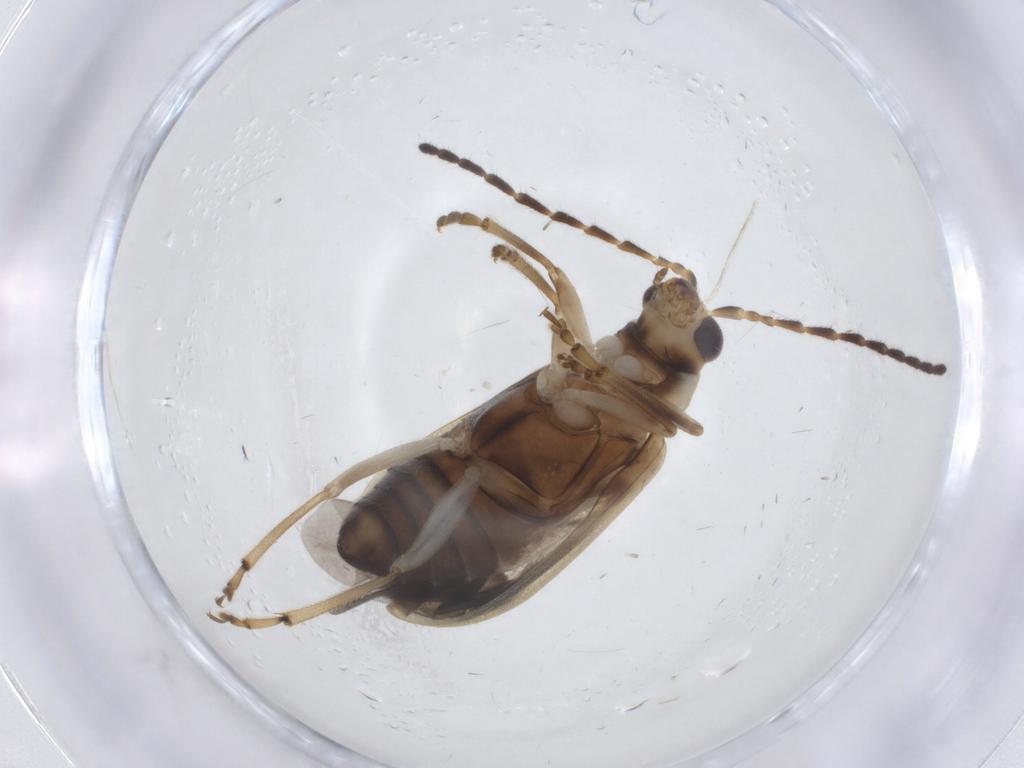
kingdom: Animalia
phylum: Arthropoda
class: Insecta
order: Coleoptera
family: Chrysomelidae
